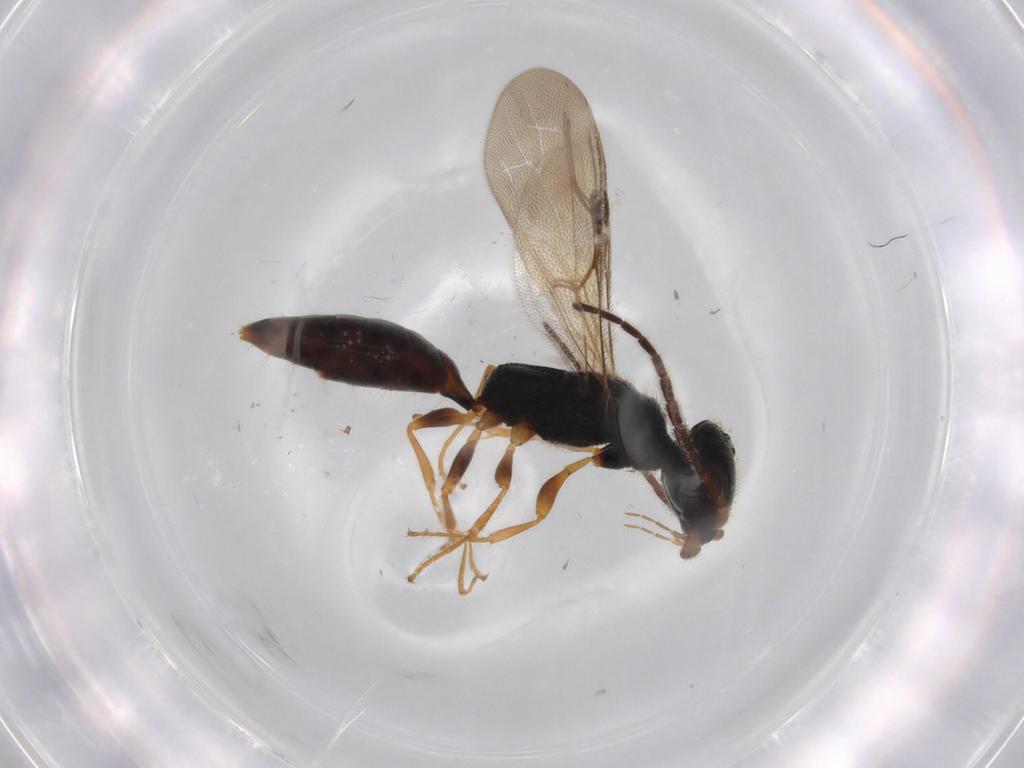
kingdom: Animalia
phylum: Arthropoda
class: Insecta
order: Hymenoptera
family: Bethylidae
